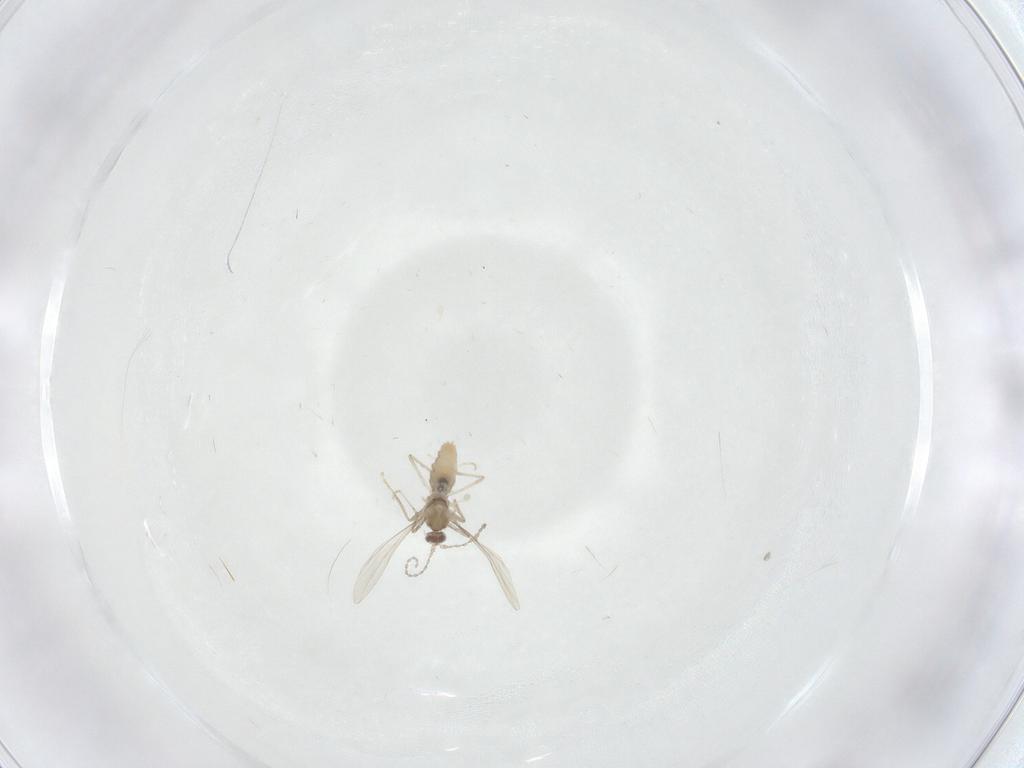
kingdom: Animalia
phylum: Arthropoda
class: Insecta
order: Diptera
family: Cecidomyiidae
